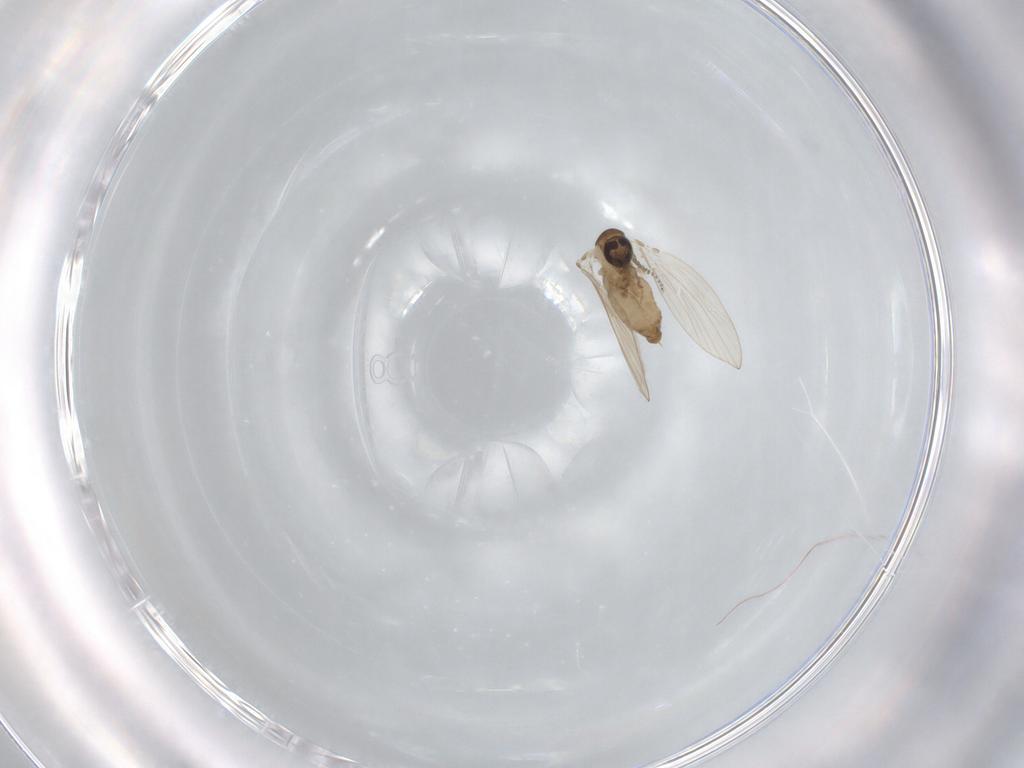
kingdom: Animalia
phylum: Arthropoda
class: Insecta
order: Diptera
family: Psychodidae
